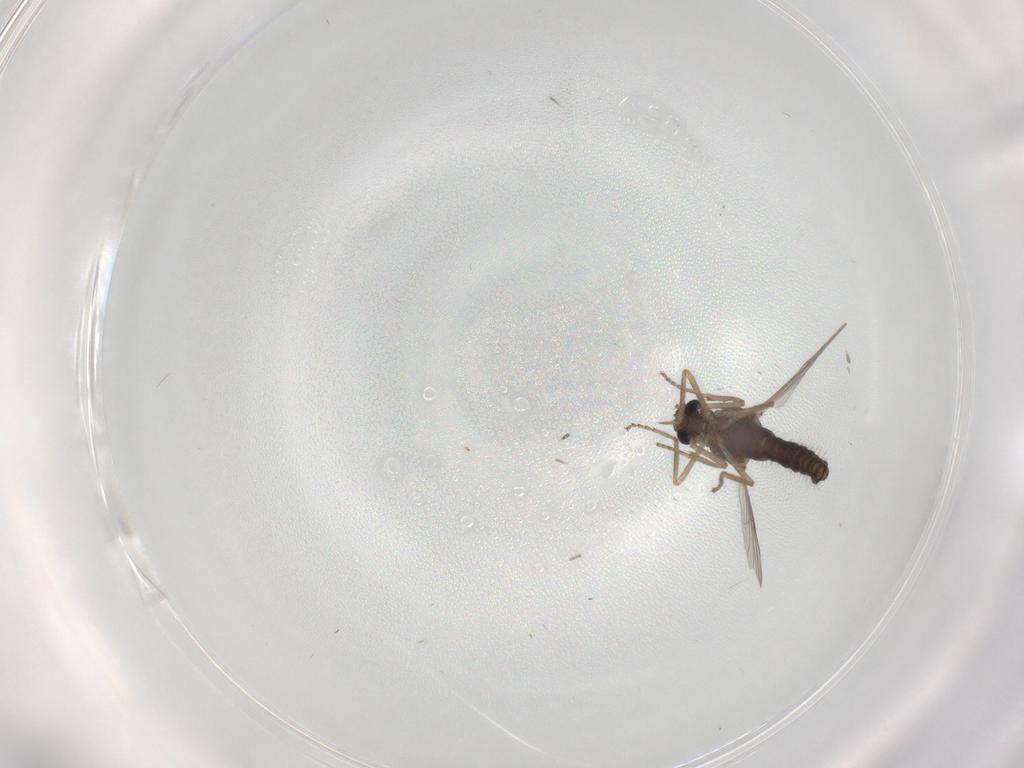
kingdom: Animalia
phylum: Arthropoda
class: Insecta
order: Diptera
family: Ceratopogonidae
